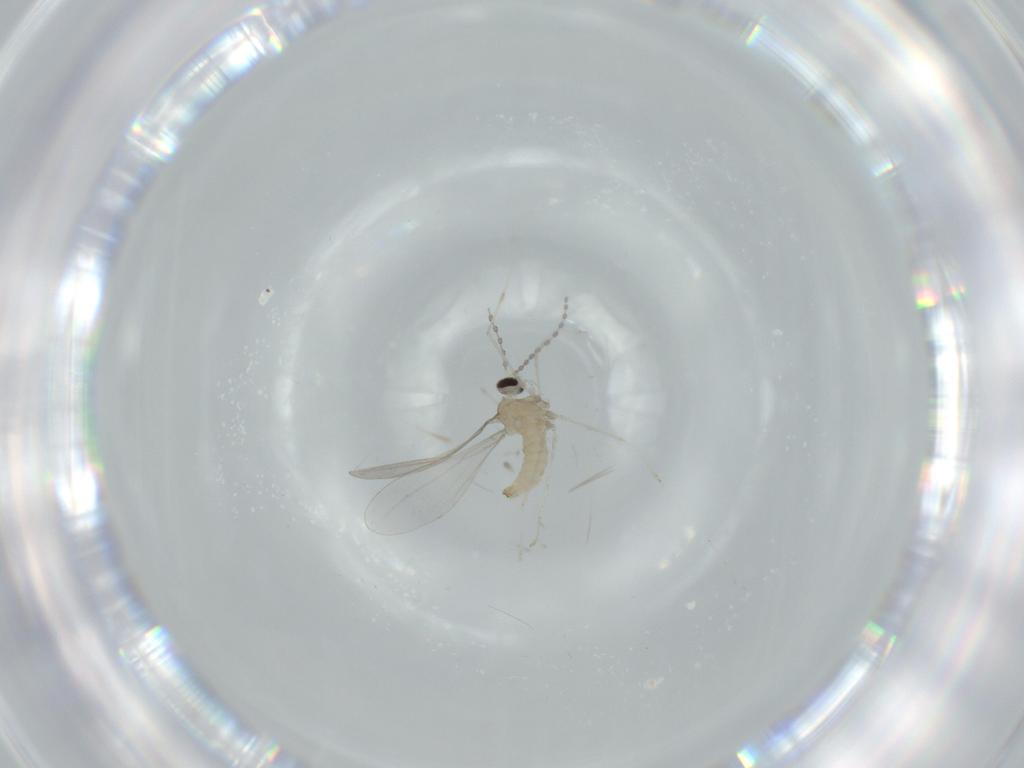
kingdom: Animalia
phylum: Arthropoda
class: Insecta
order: Diptera
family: Cecidomyiidae
